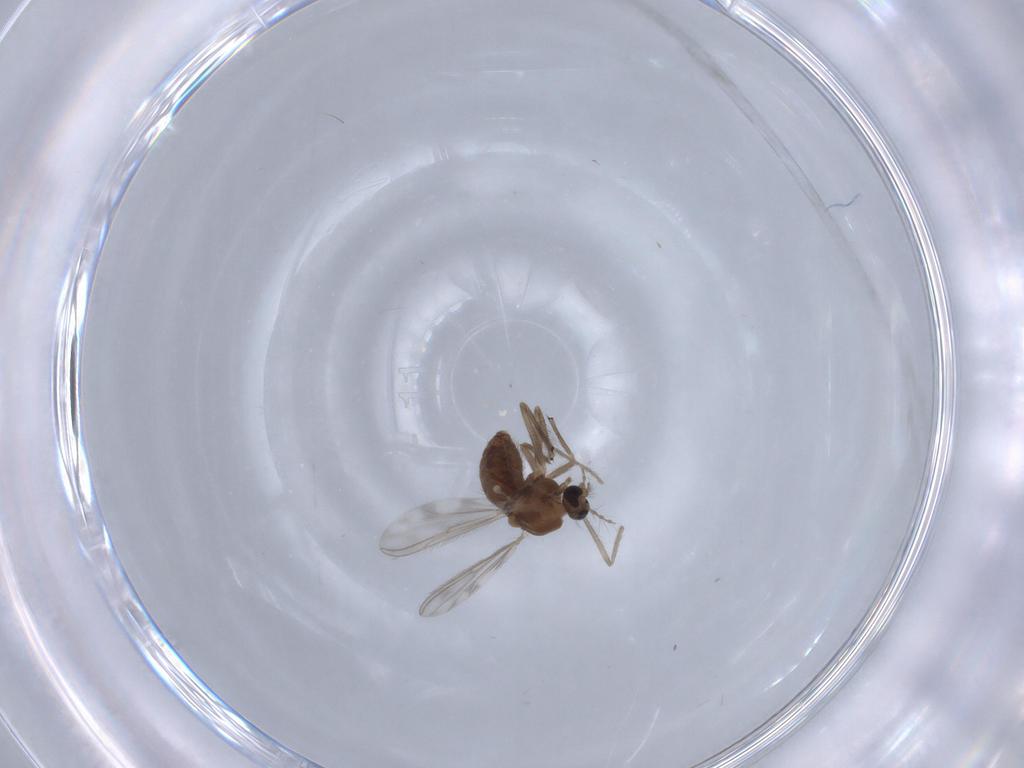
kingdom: Animalia
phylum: Arthropoda
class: Insecta
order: Diptera
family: Chironomidae
